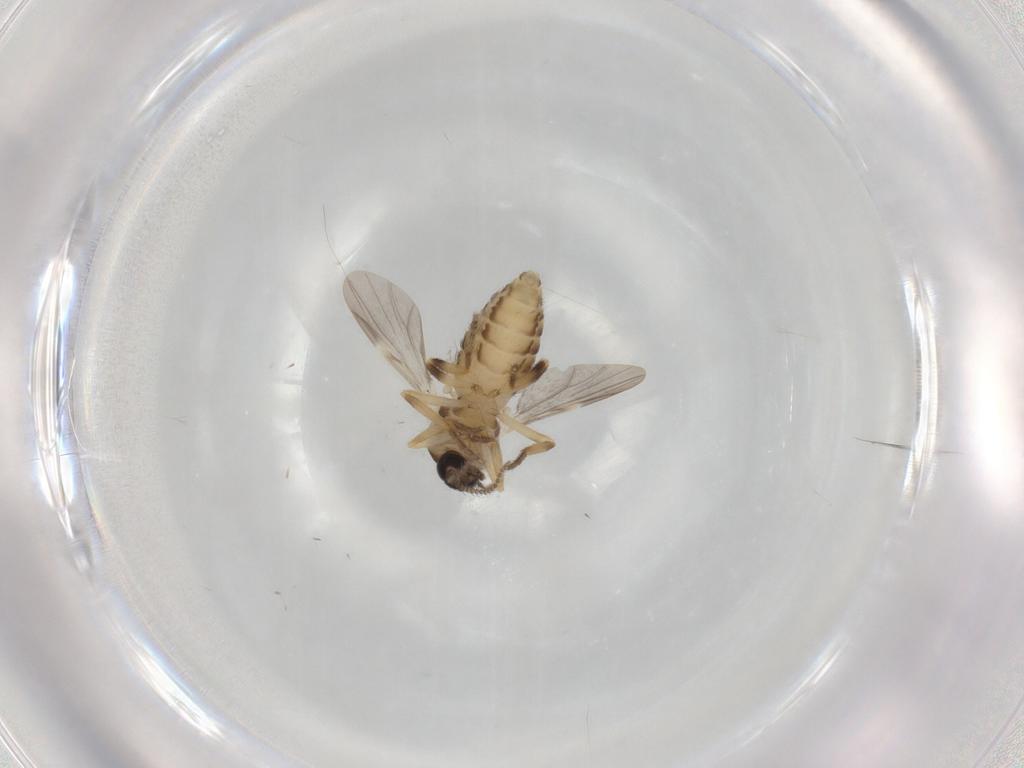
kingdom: Animalia
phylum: Arthropoda
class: Insecta
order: Diptera
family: Ceratopogonidae
